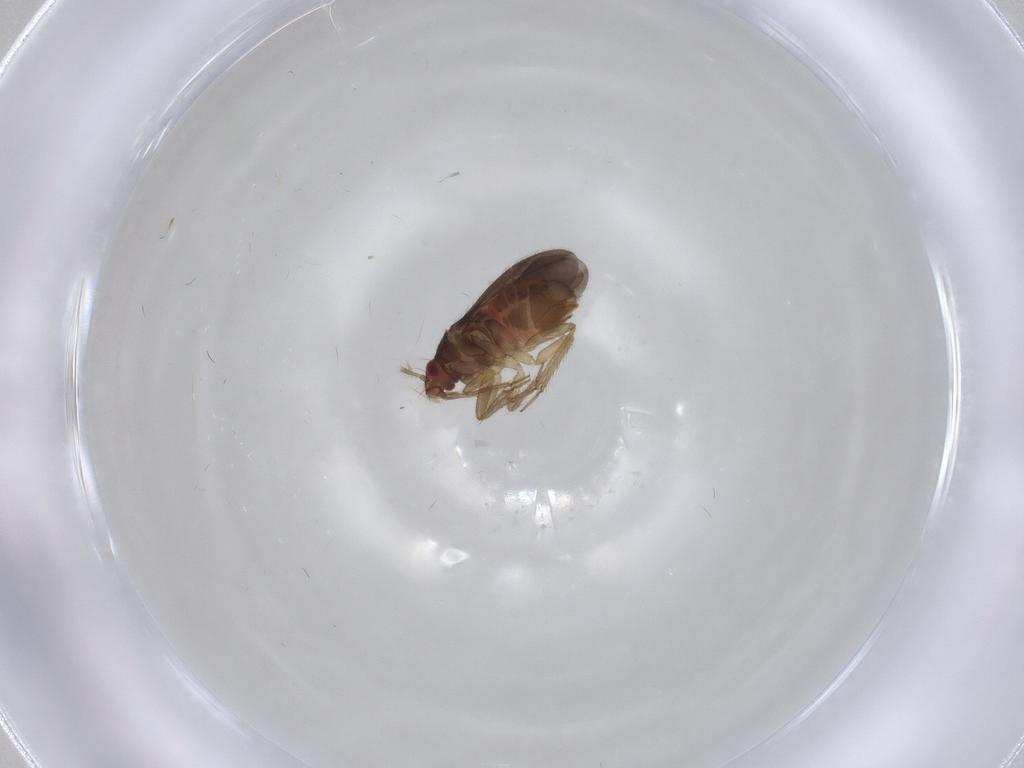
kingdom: Animalia
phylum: Arthropoda
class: Insecta
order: Hemiptera
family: Ceratocombidae
